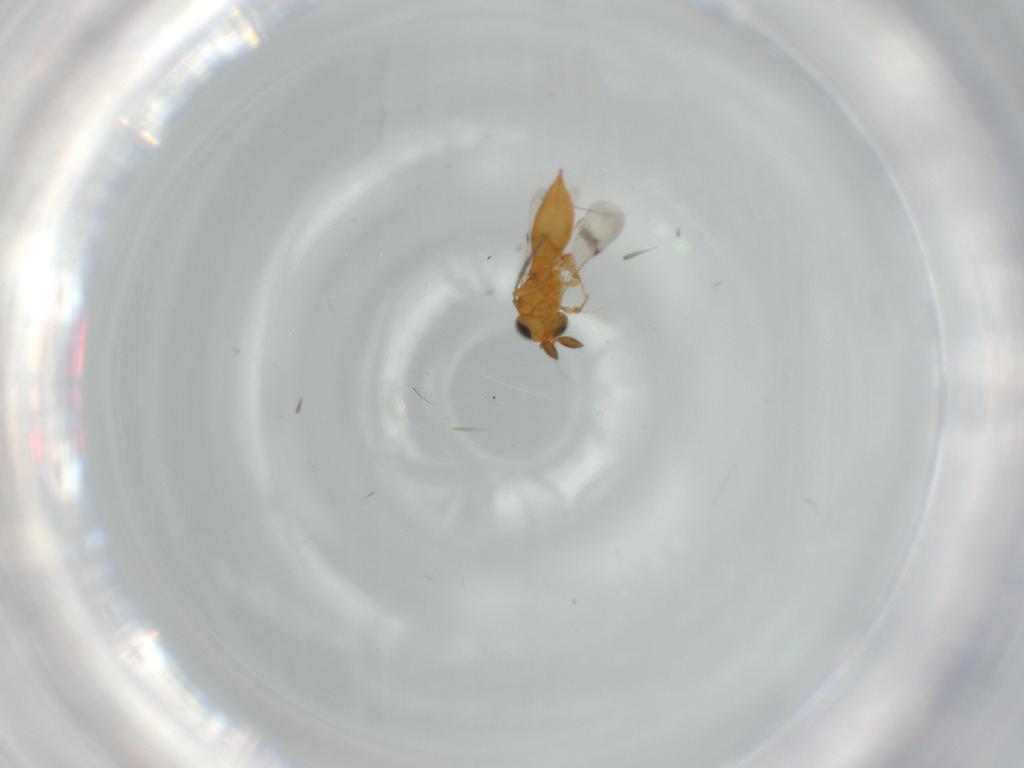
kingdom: Animalia
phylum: Arthropoda
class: Insecta
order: Hymenoptera
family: Scelionidae
